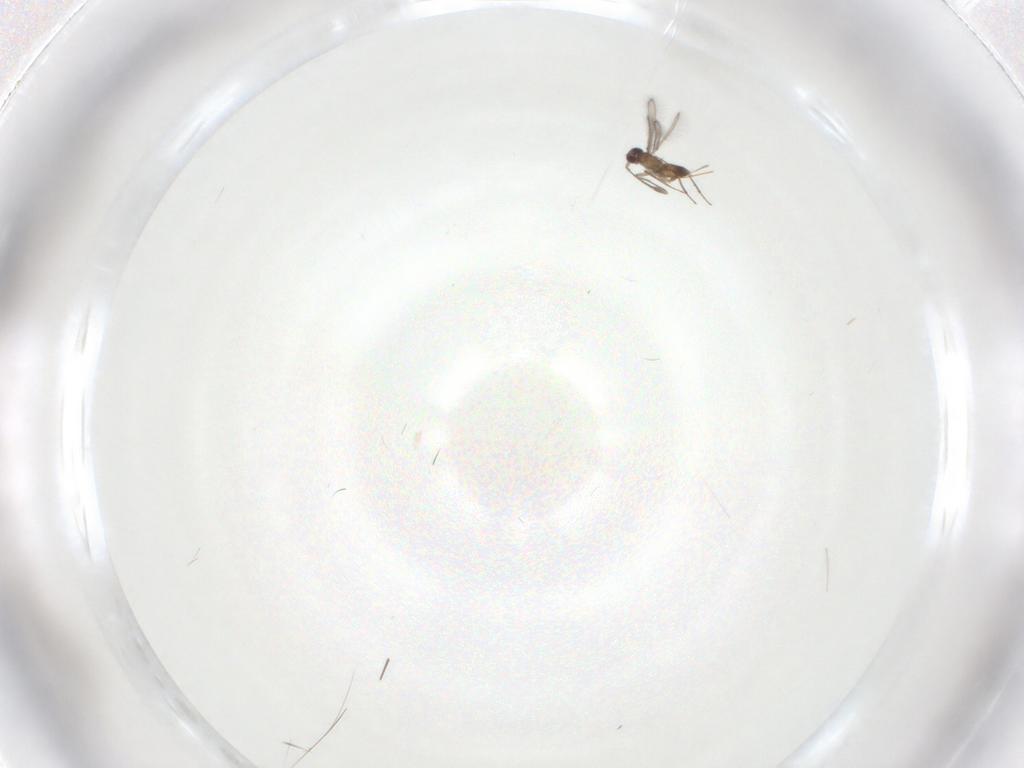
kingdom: Animalia
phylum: Arthropoda
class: Insecta
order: Hymenoptera
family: Mymaridae
